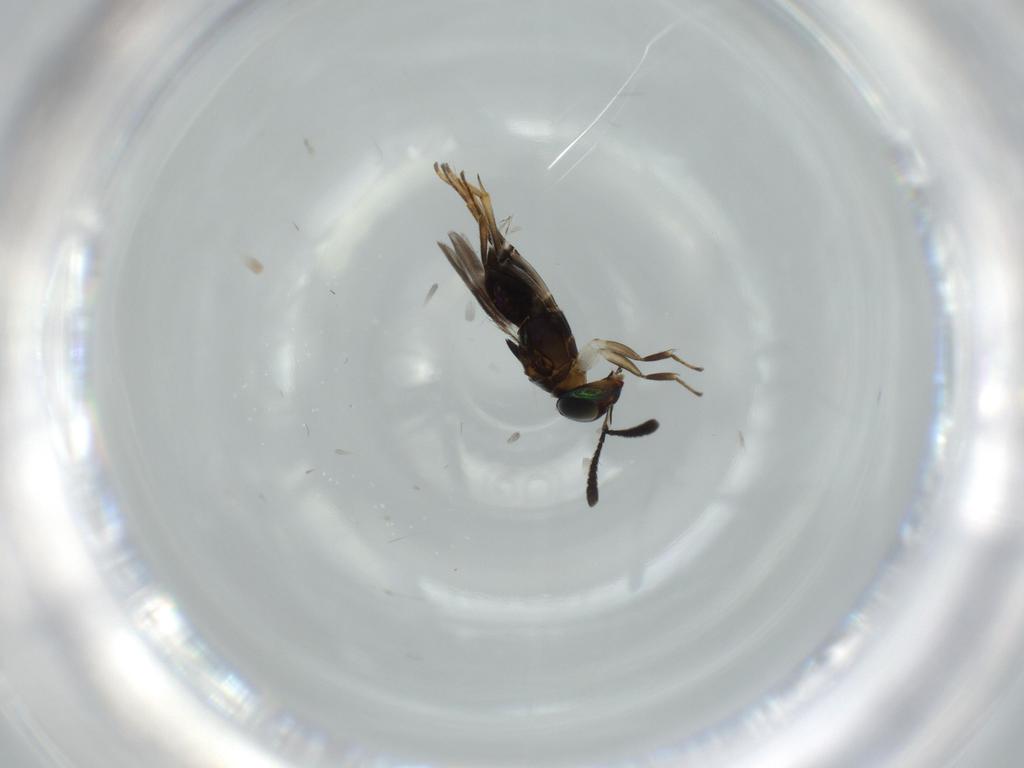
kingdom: Animalia
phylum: Arthropoda
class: Insecta
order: Hymenoptera
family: Encyrtidae
